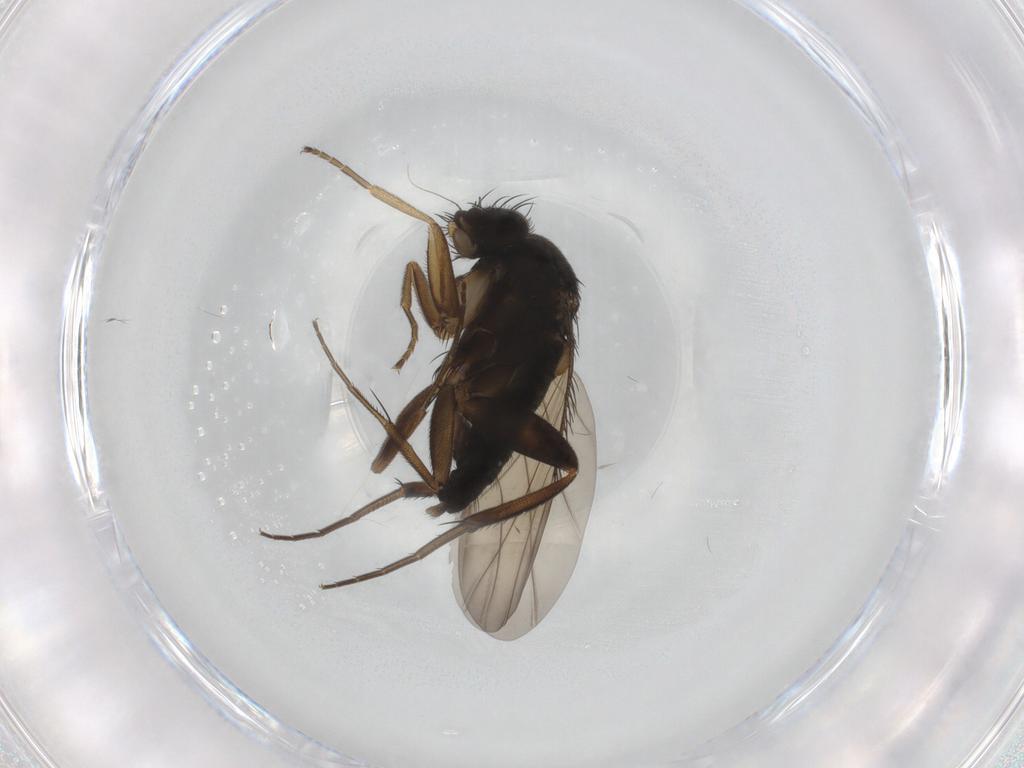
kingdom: Animalia
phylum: Arthropoda
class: Insecta
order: Diptera
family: Phoridae
